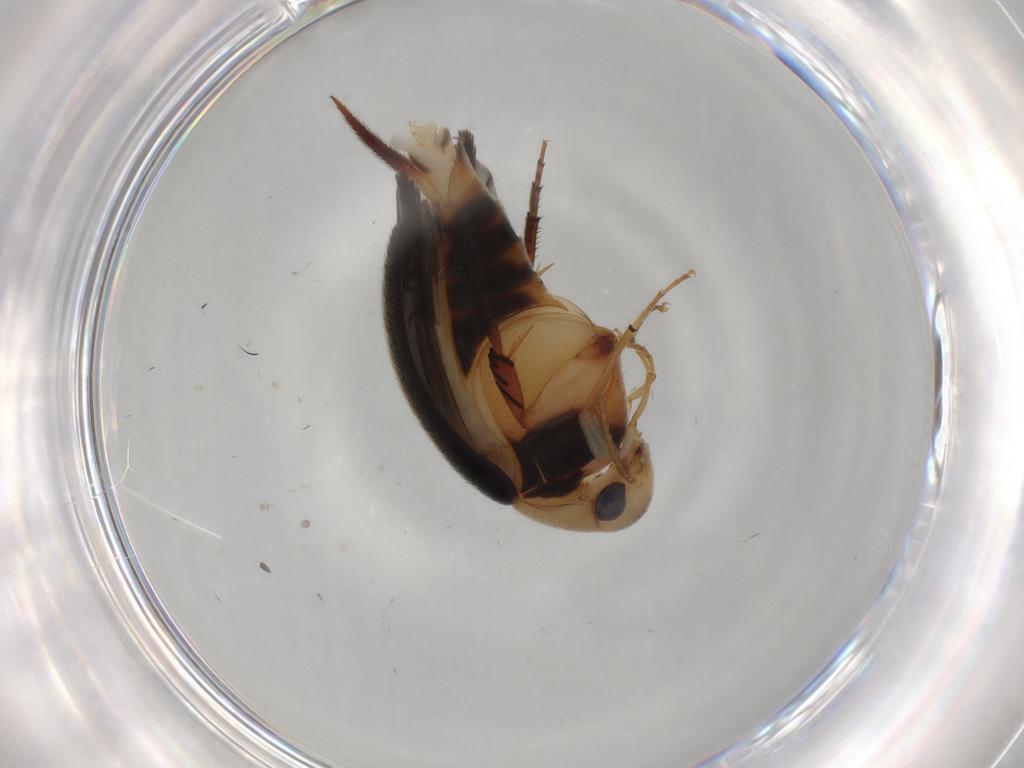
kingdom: Animalia
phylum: Arthropoda
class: Insecta
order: Coleoptera
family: Mordellidae
